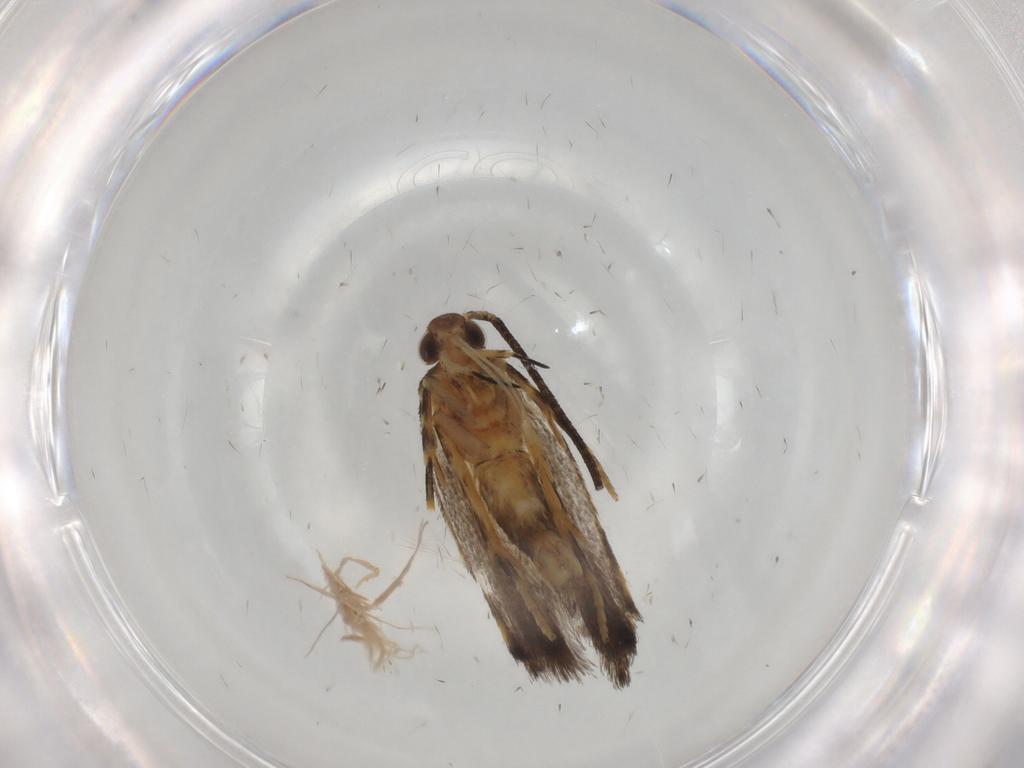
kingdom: Animalia
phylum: Arthropoda
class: Insecta
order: Lepidoptera
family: Autostichidae
